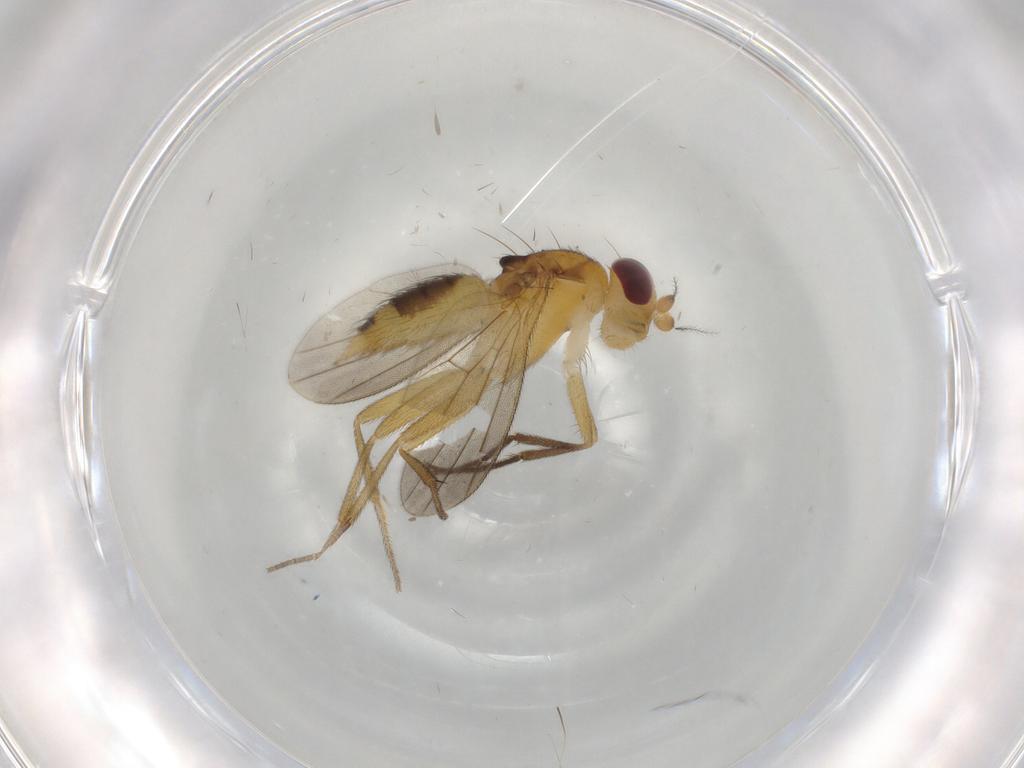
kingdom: Animalia
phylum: Arthropoda
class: Insecta
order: Diptera
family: Clusiidae
